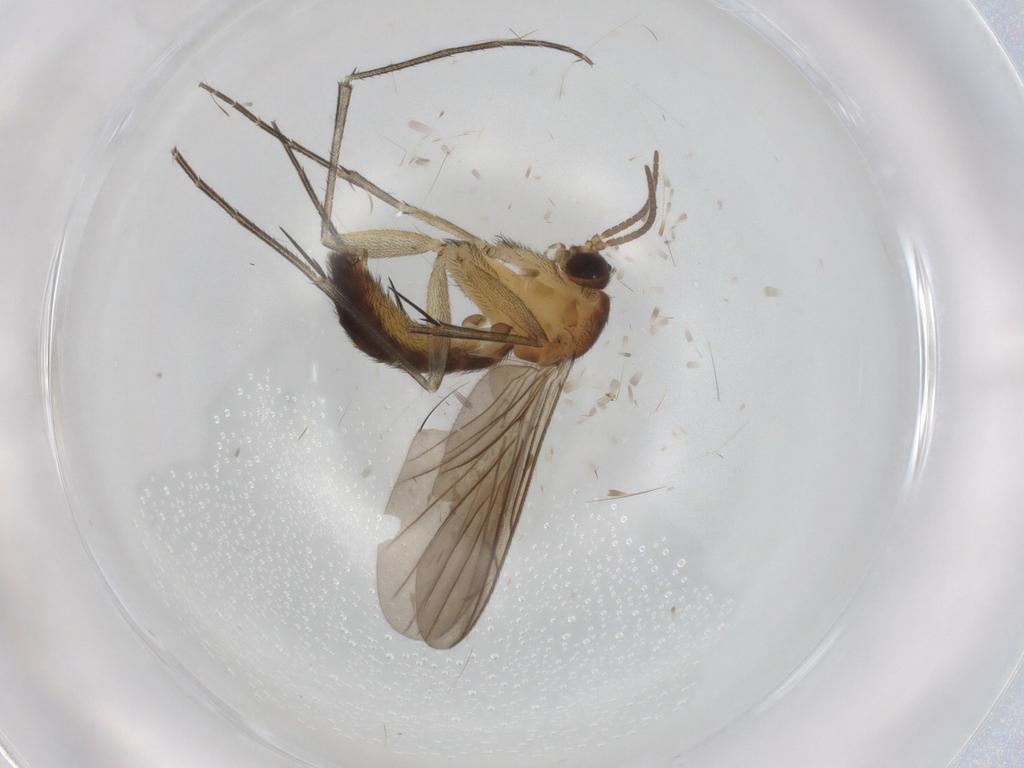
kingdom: Animalia
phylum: Arthropoda
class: Insecta
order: Diptera
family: Keroplatidae
